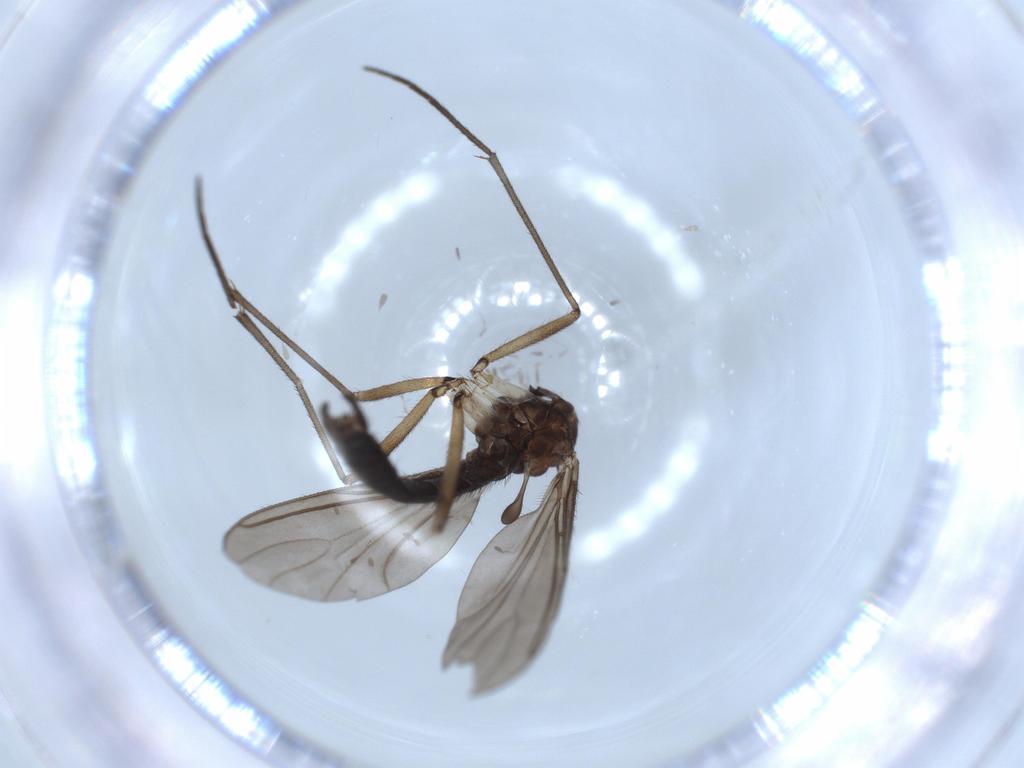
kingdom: Animalia
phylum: Arthropoda
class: Insecta
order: Diptera
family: Sciaridae
